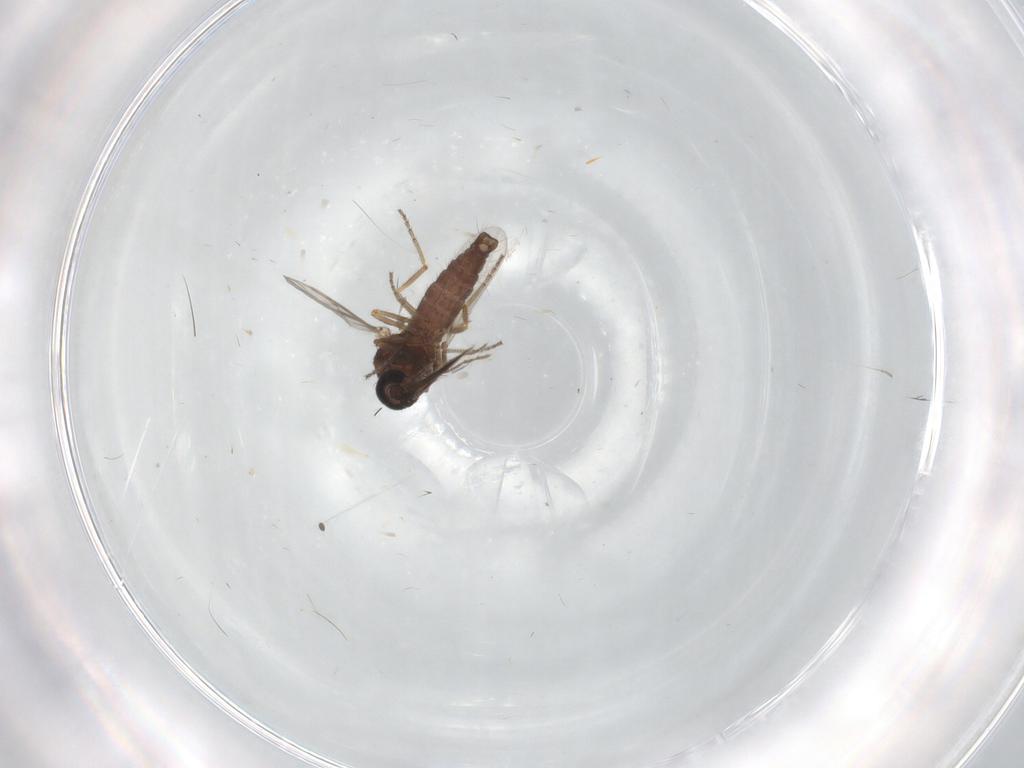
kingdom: Animalia
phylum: Arthropoda
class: Insecta
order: Diptera
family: Ceratopogonidae
